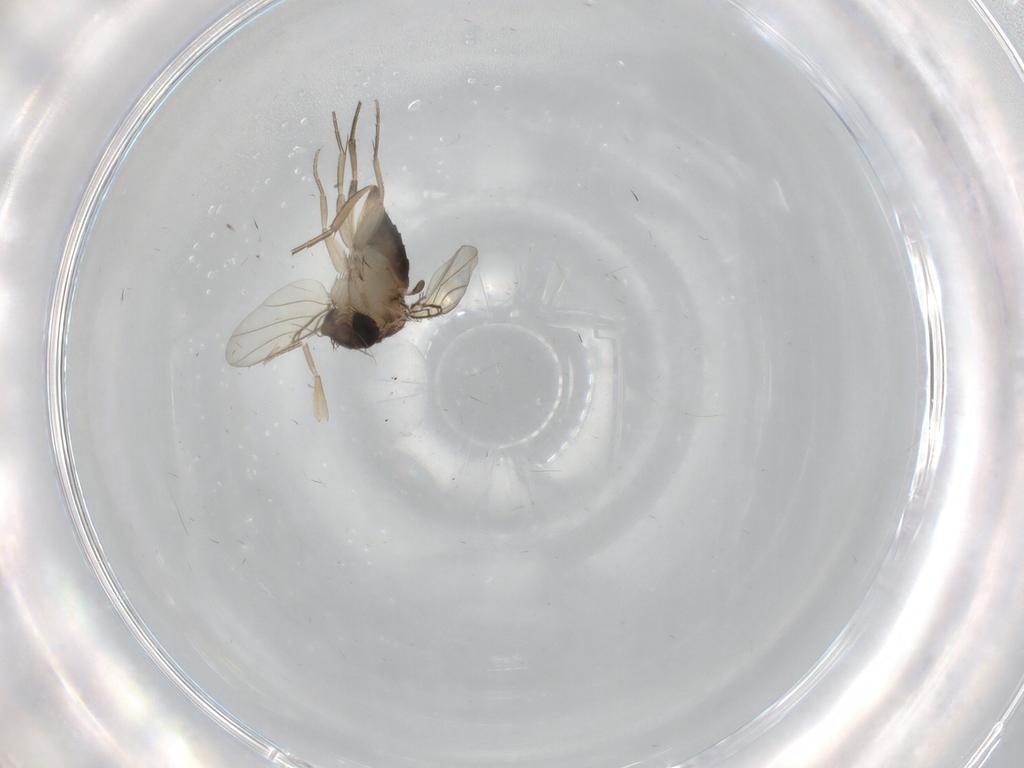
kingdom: Animalia
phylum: Arthropoda
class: Insecta
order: Diptera
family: Phoridae
